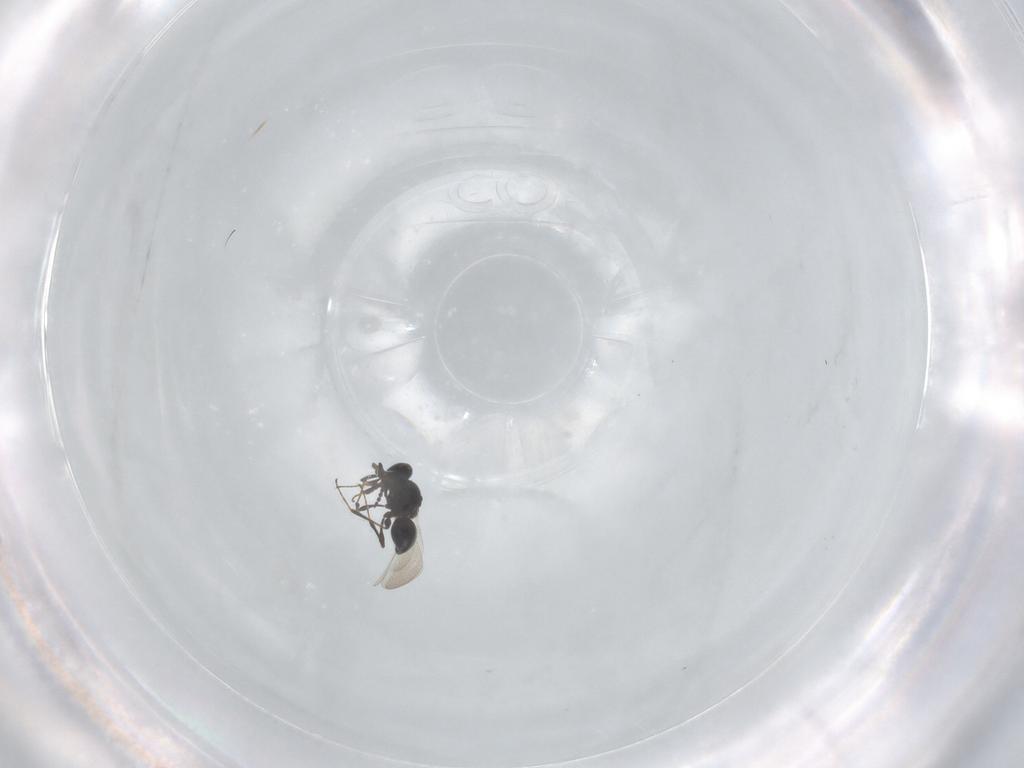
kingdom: Animalia
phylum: Arthropoda
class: Insecta
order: Hymenoptera
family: Platygastridae
